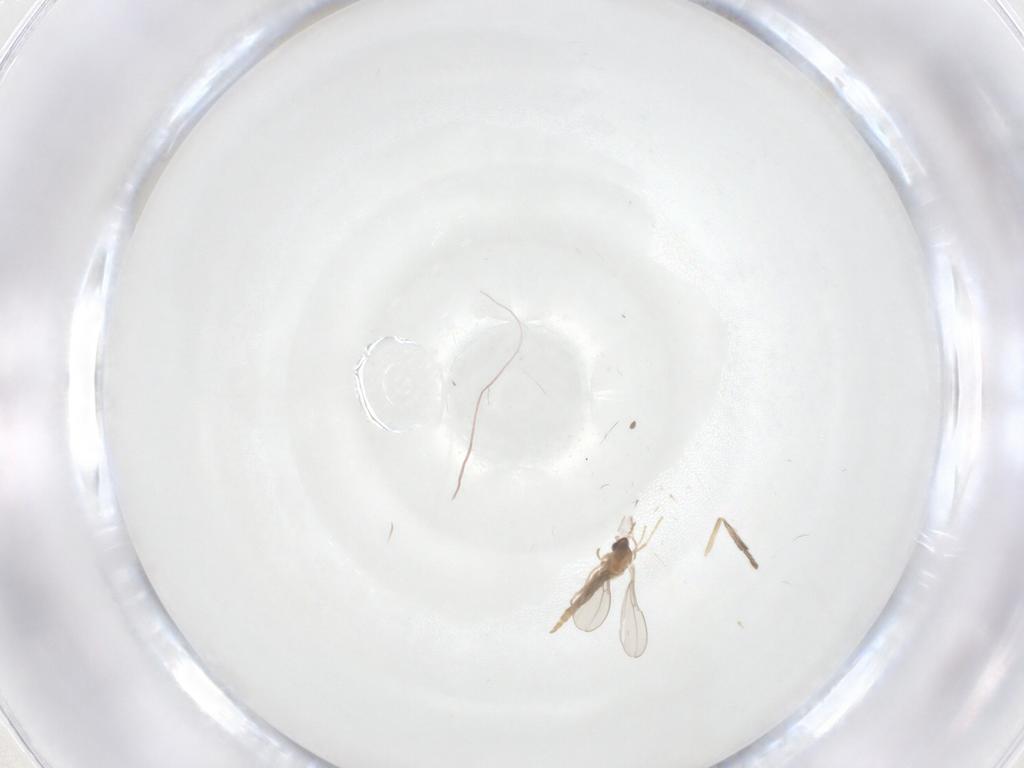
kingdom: Animalia
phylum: Arthropoda
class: Insecta
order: Diptera
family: Cecidomyiidae
